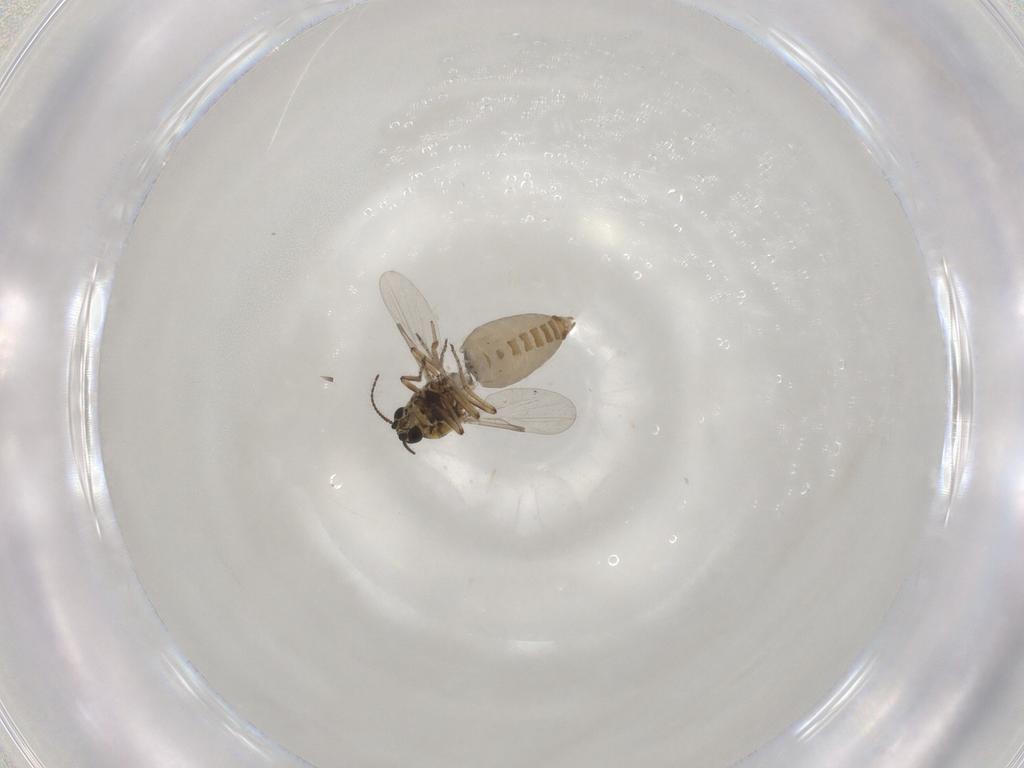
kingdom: Animalia
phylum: Arthropoda
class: Insecta
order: Diptera
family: Ceratopogonidae
